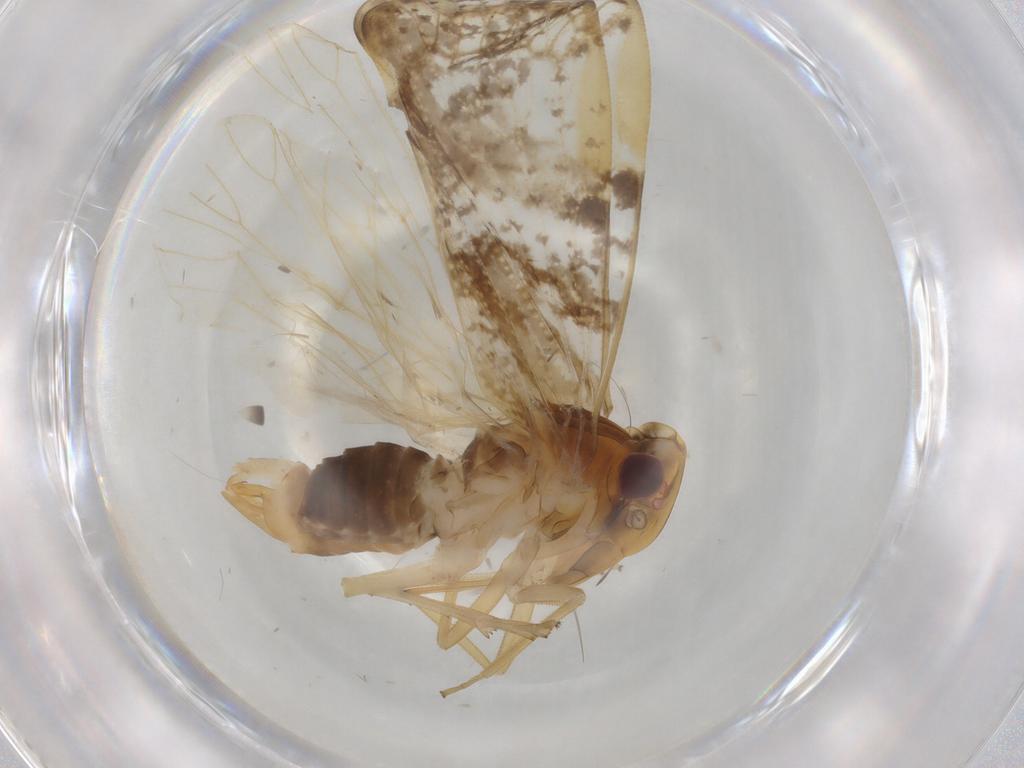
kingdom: Animalia
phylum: Arthropoda
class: Insecta
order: Hemiptera
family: Cixiidae
